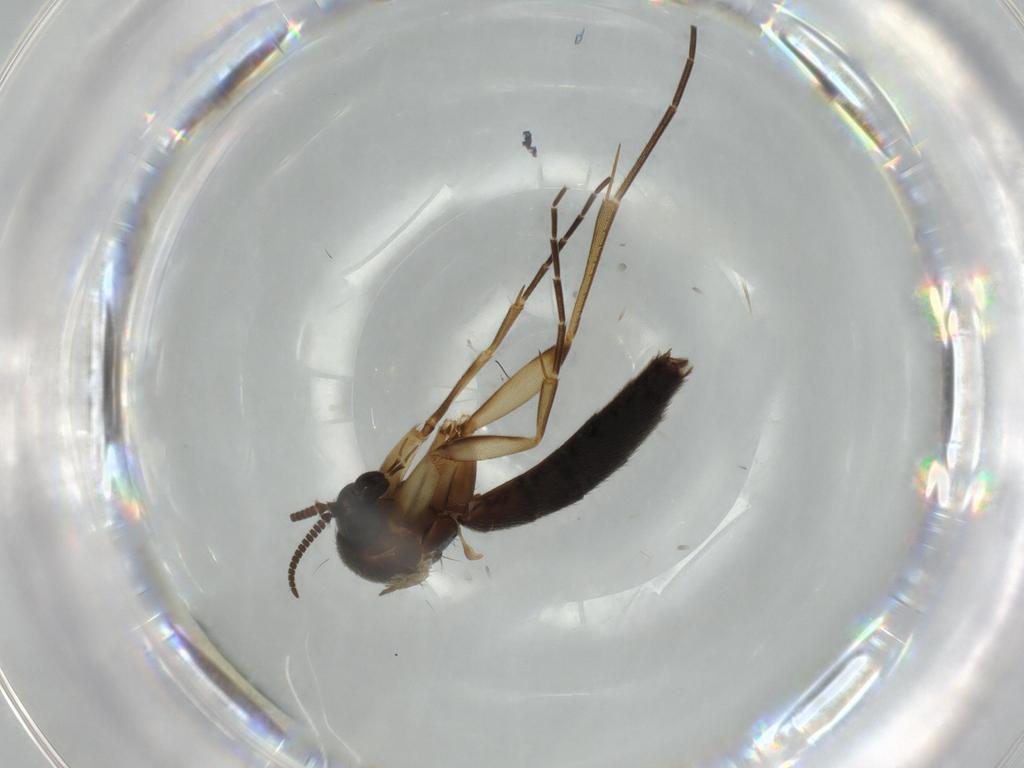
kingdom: Animalia
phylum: Arthropoda
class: Insecta
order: Diptera
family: Mycetophilidae
